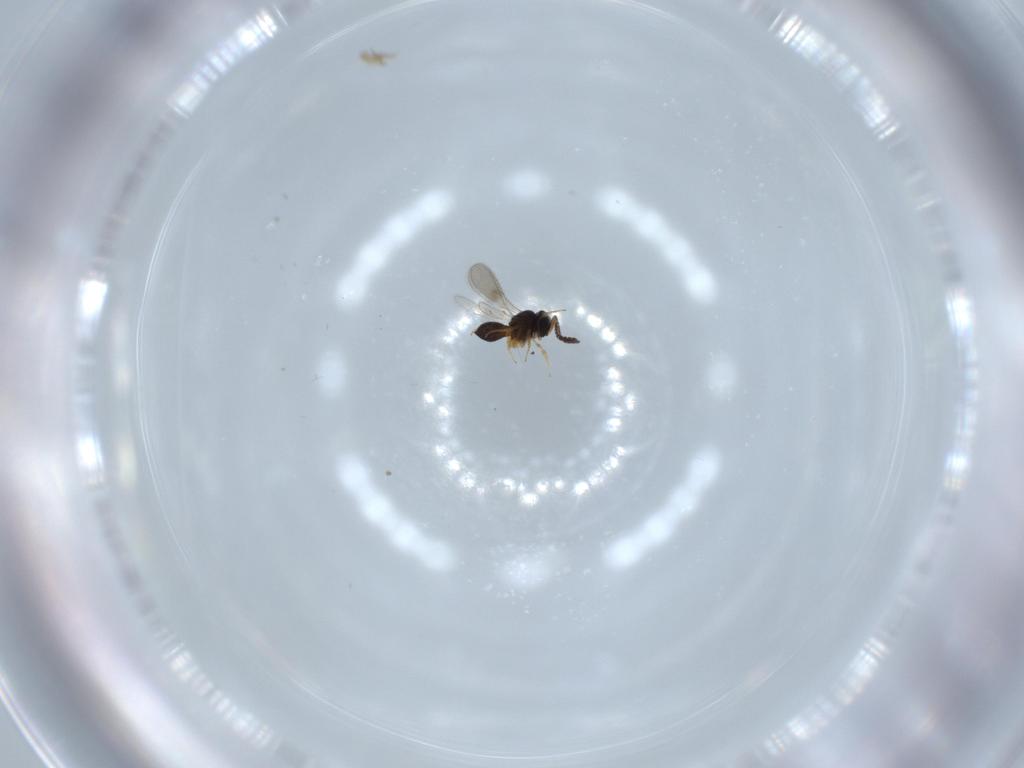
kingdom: Animalia
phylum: Arthropoda
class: Insecta
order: Hymenoptera
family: Scelionidae
